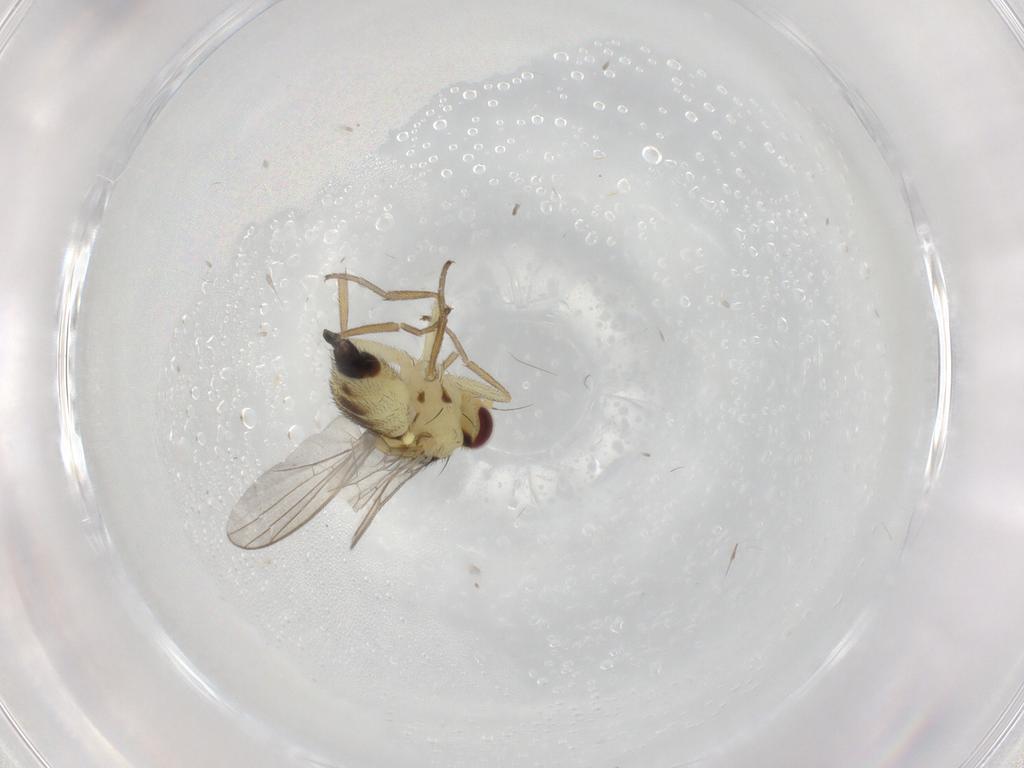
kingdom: Animalia
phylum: Arthropoda
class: Insecta
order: Diptera
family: Agromyzidae
